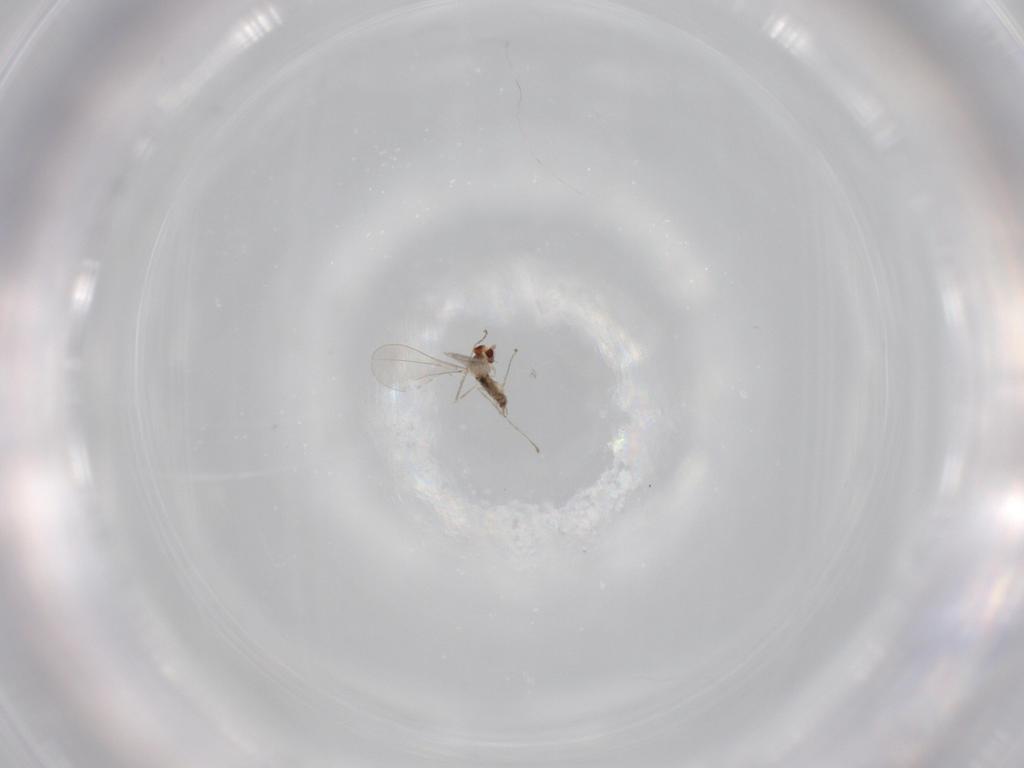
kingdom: Animalia
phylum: Arthropoda
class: Insecta
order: Diptera
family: Cecidomyiidae
